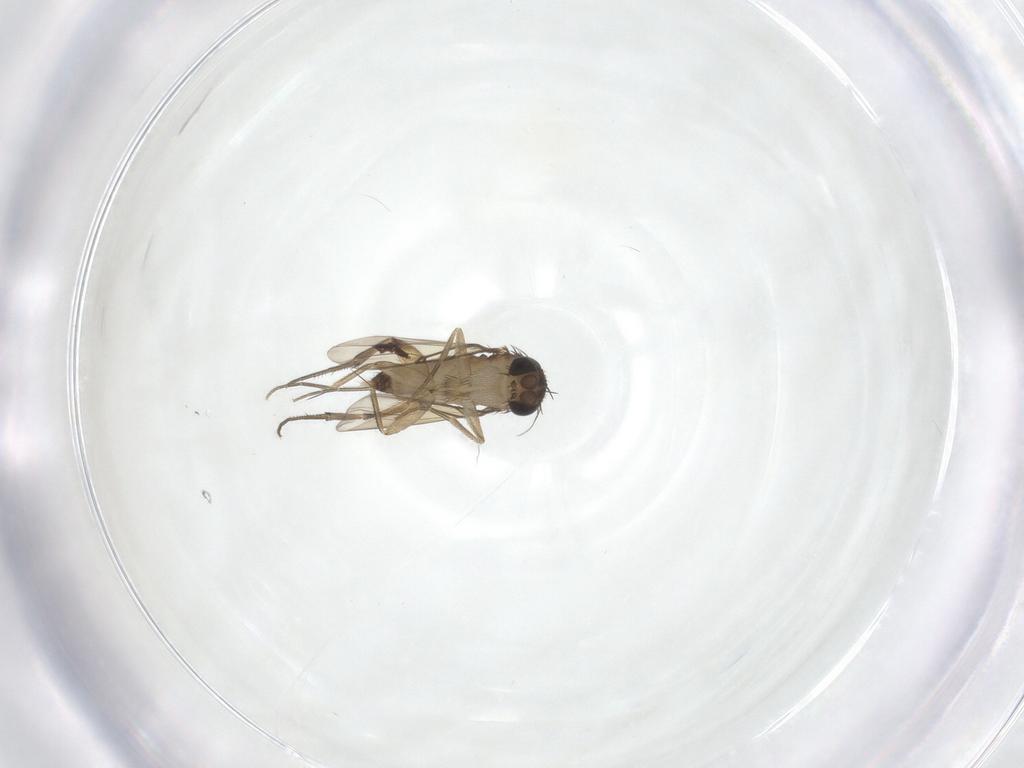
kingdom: Animalia
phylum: Arthropoda
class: Insecta
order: Diptera
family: Phoridae
